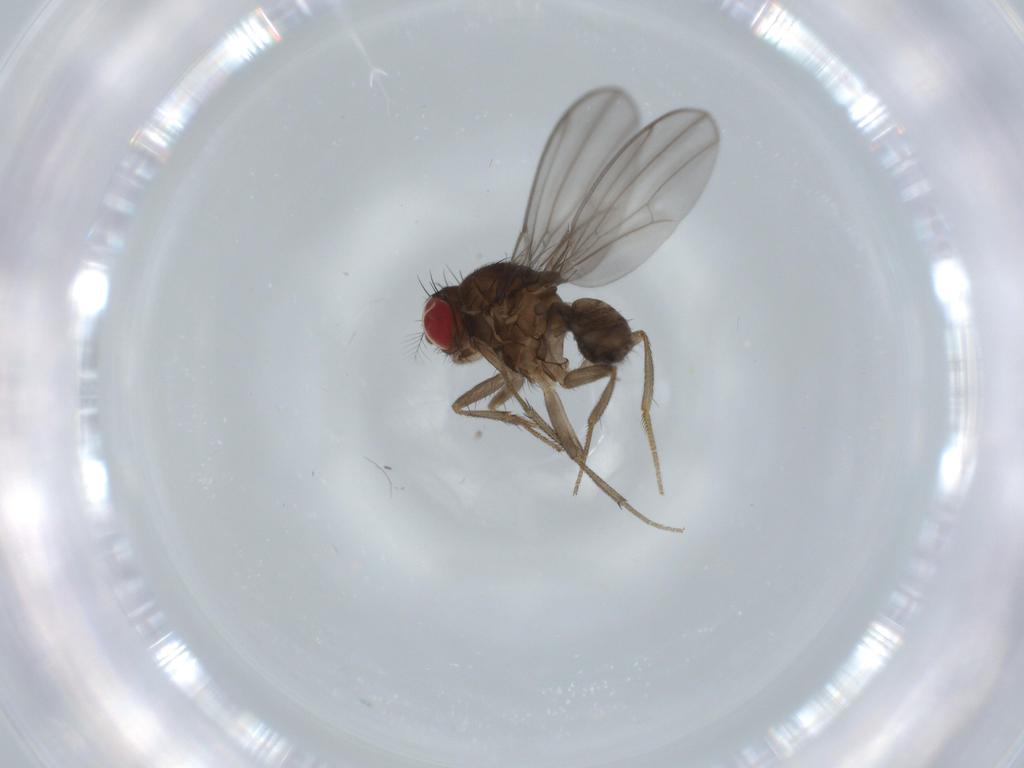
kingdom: Animalia
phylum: Arthropoda
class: Insecta
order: Diptera
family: Drosophilidae
